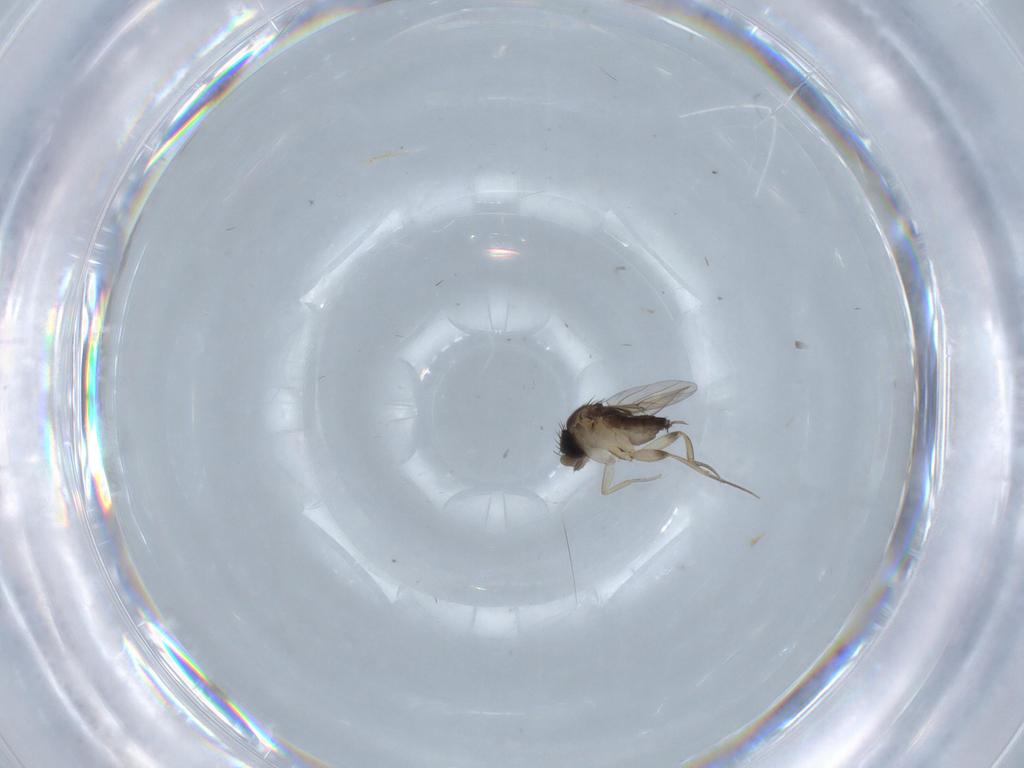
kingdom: Animalia
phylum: Arthropoda
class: Insecta
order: Diptera
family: Phoridae
